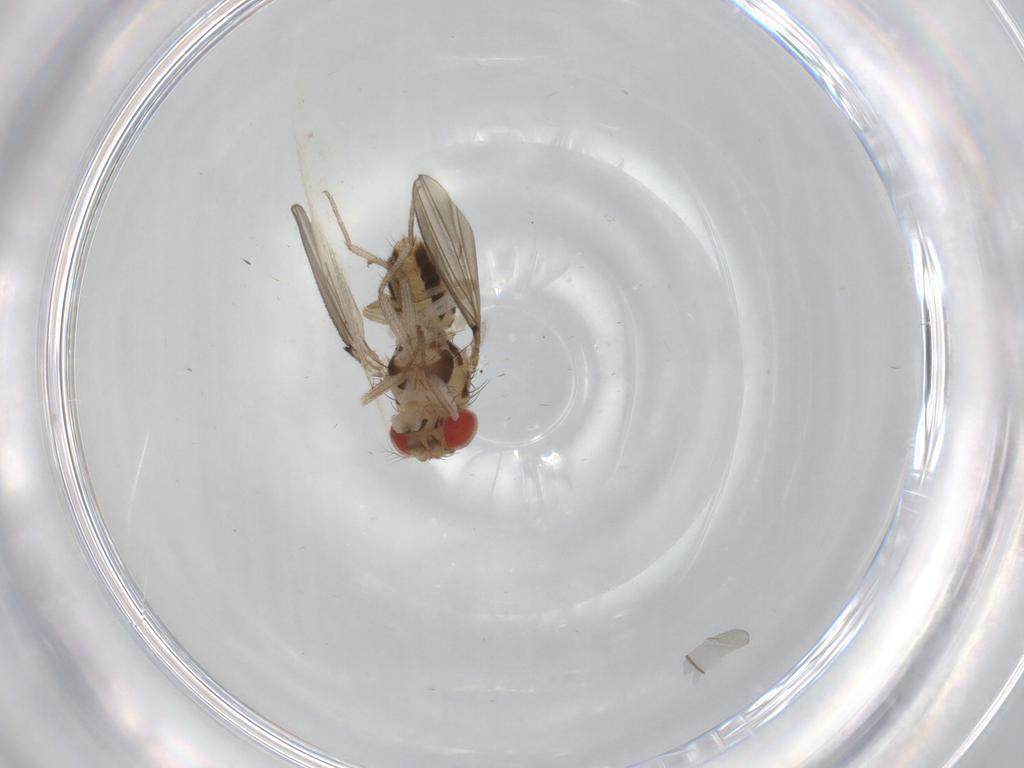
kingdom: Animalia
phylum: Arthropoda
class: Insecta
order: Diptera
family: Drosophilidae
